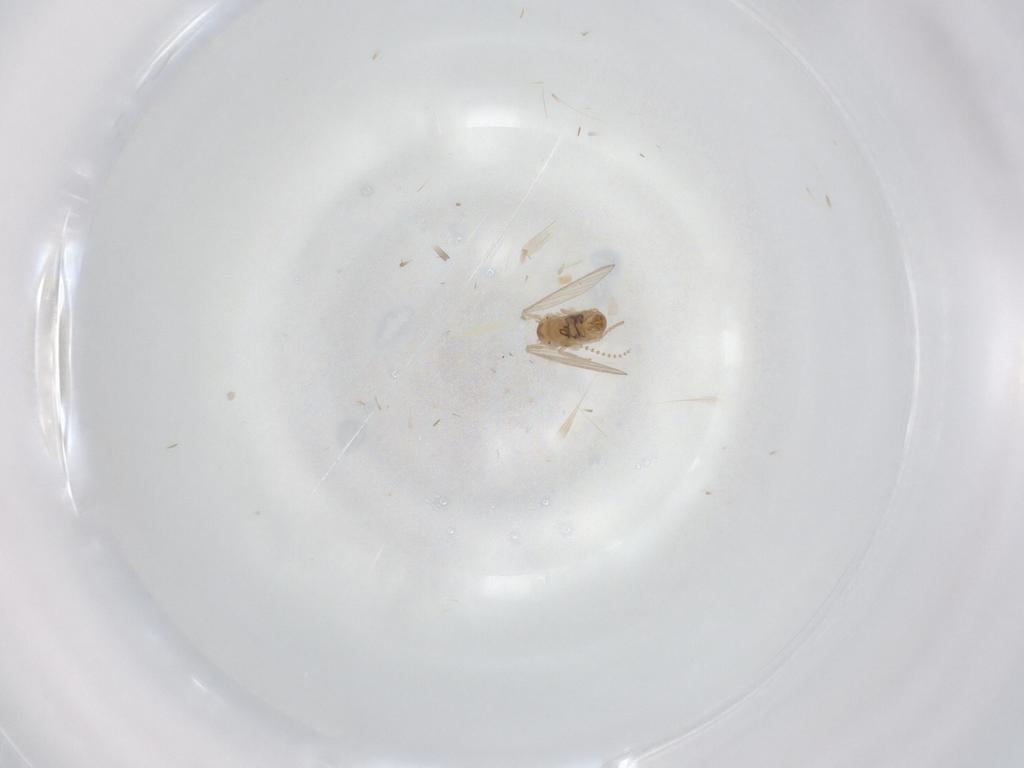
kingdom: Animalia
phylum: Arthropoda
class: Insecta
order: Diptera
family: Psychodidae
